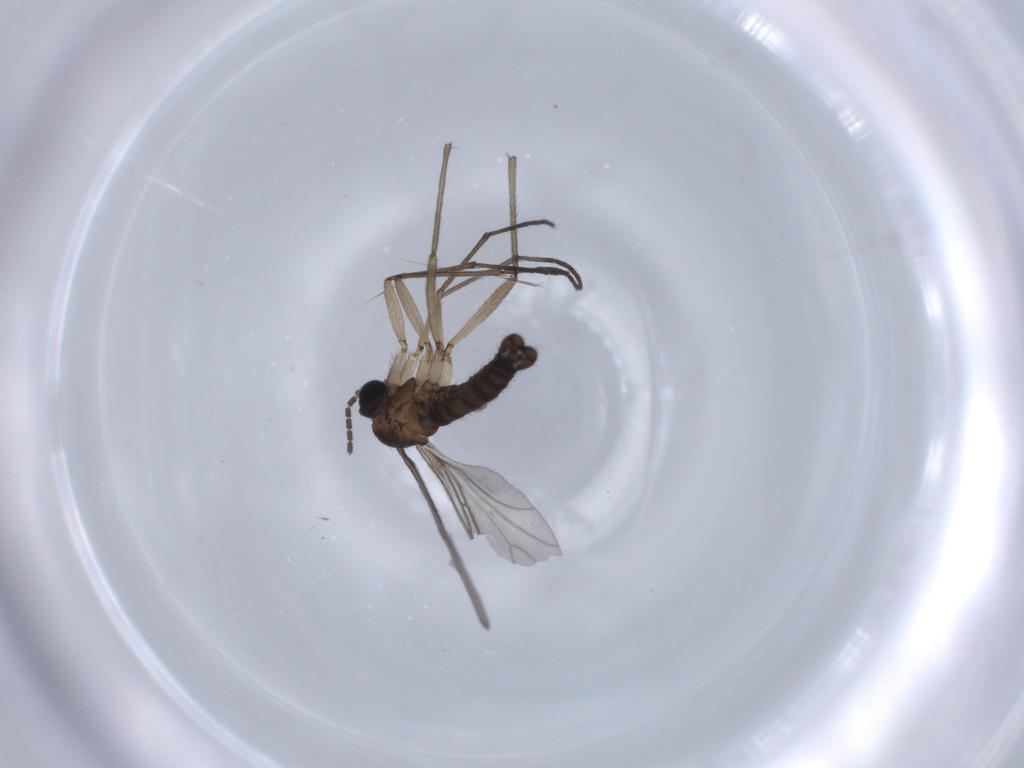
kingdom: Animalia
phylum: Arthropoda
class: Insecta
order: Diptera
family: Sciaridae
